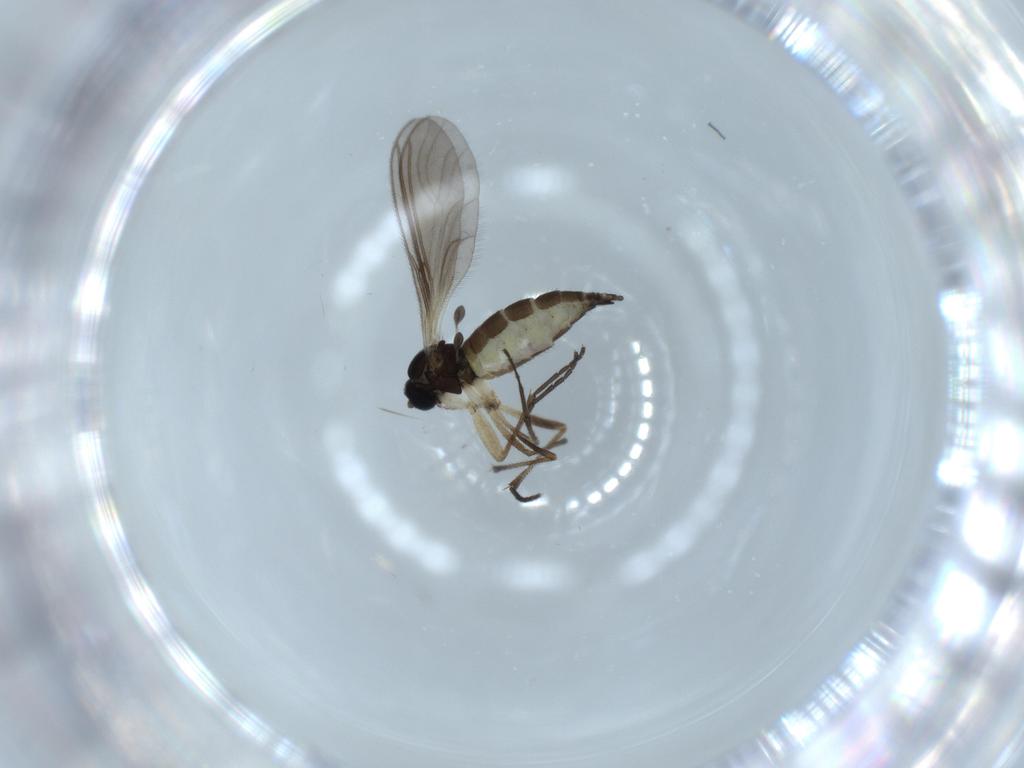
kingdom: Animalia
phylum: Arthropoda
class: Insecta
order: Diptera
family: Sciaridae
